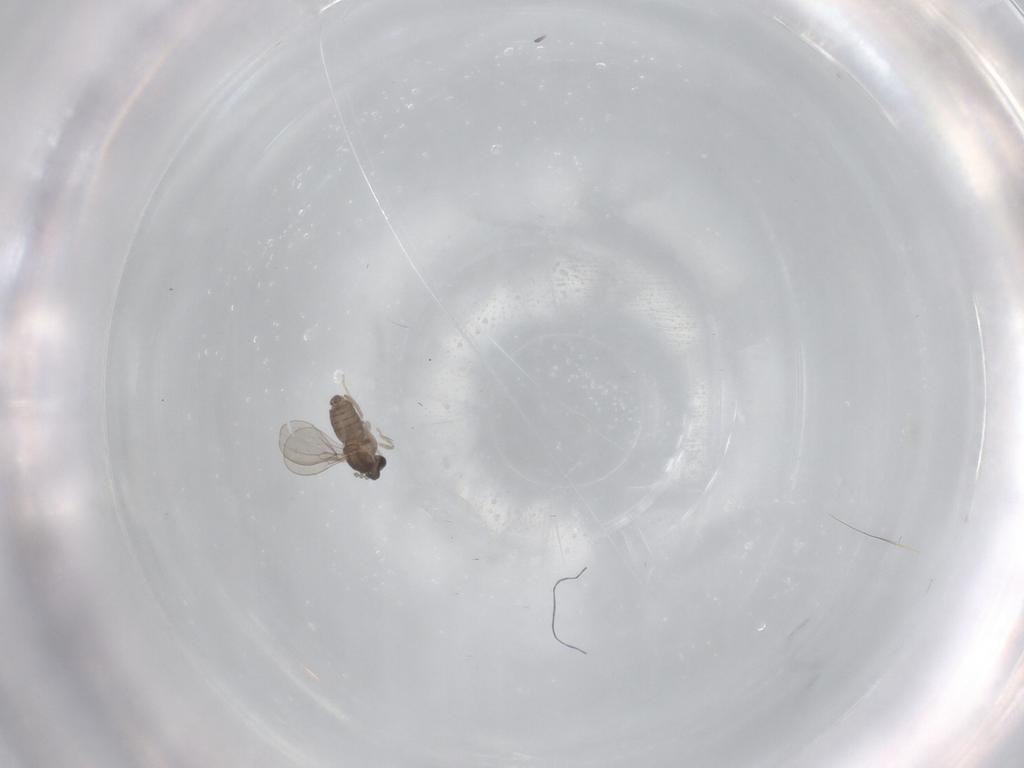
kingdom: Animalia
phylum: Arthropoda
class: Insecta
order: Diptera
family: Cecidomyiidae
